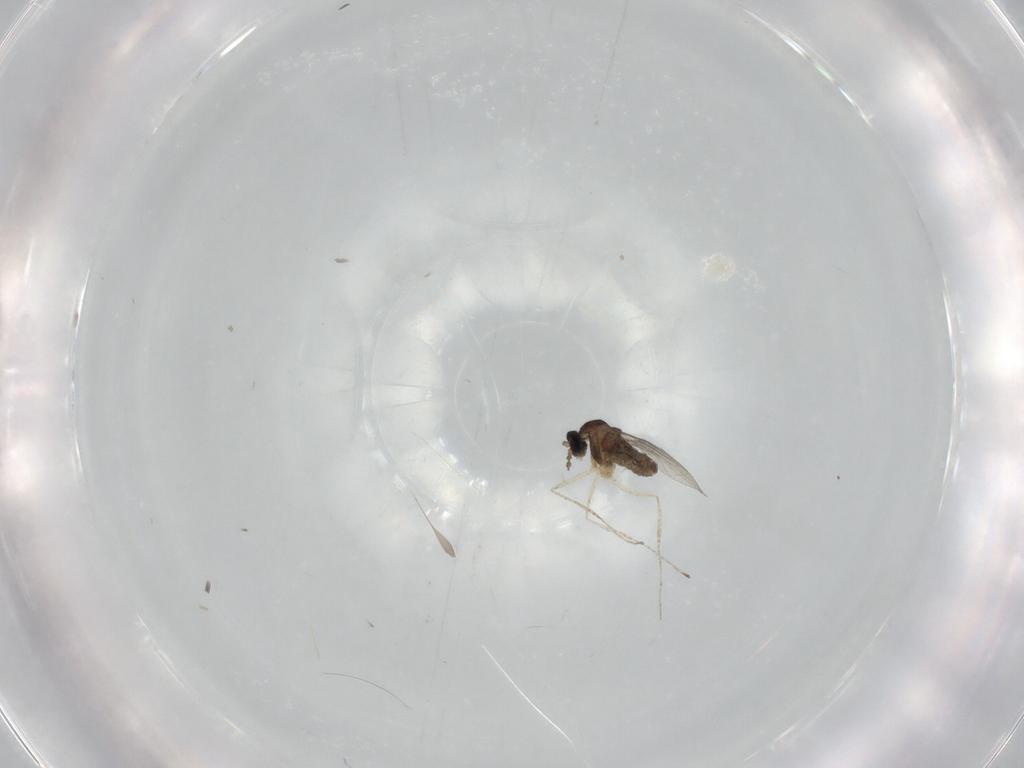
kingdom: Animalia
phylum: Arthropoda
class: Insecta
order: Diptera
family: Cecidomyiidae
